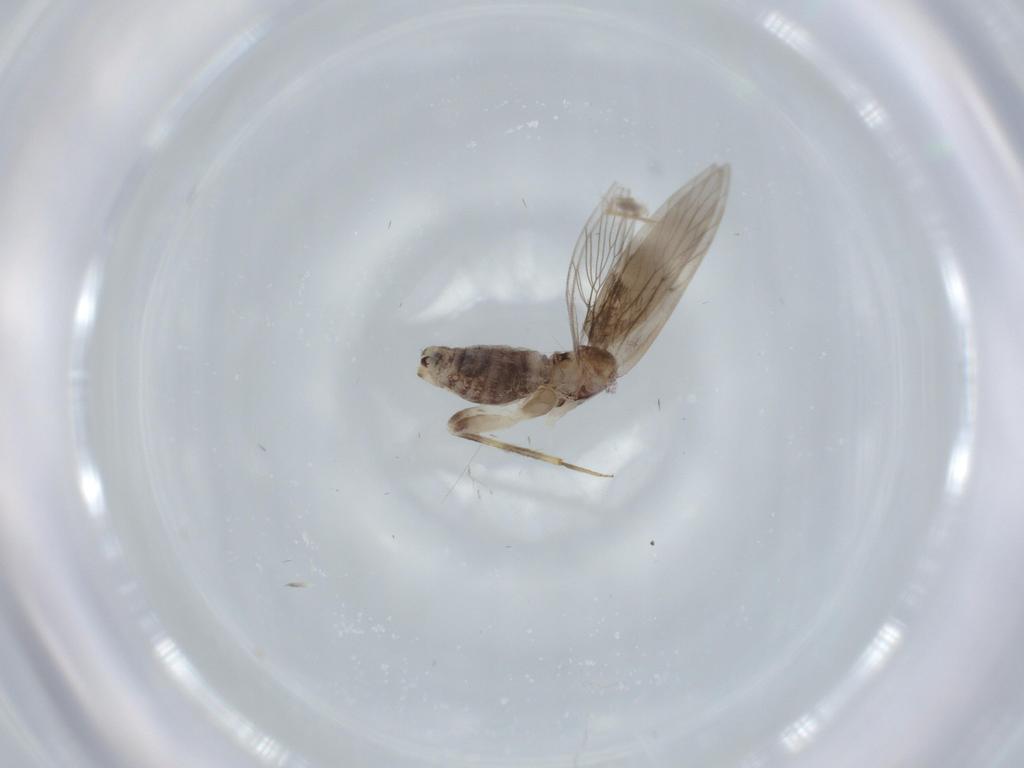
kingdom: Animalia
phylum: Arthropoda
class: Insecta
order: Psocodea
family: Lepidopsocidae
